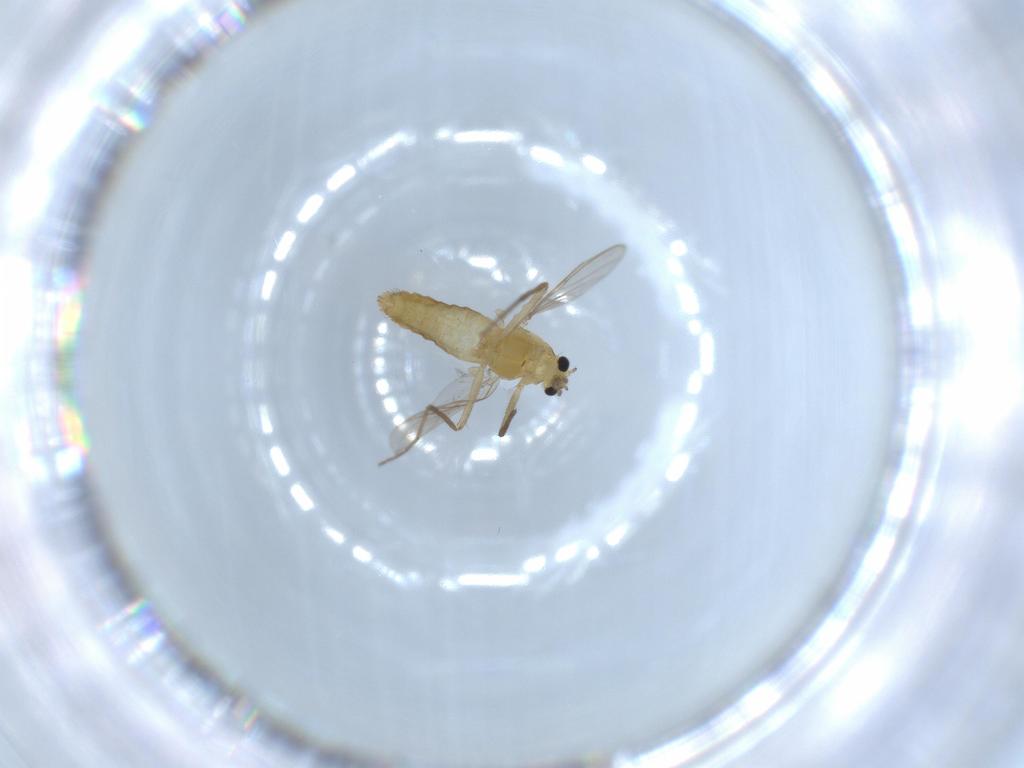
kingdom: Animalia
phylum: Arthropoda
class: Insecta
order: Diptera
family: Chironomidae
